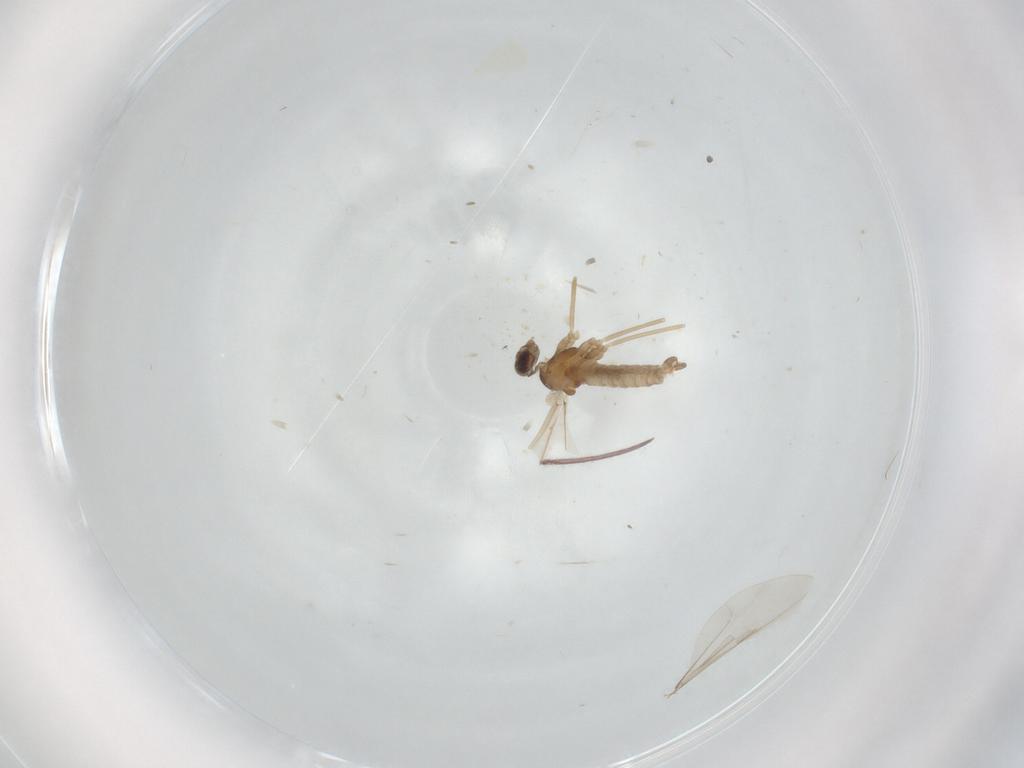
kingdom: Animalia
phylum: Arthropoda
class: Insecta
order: Diptera
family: Cecidomyiidae
